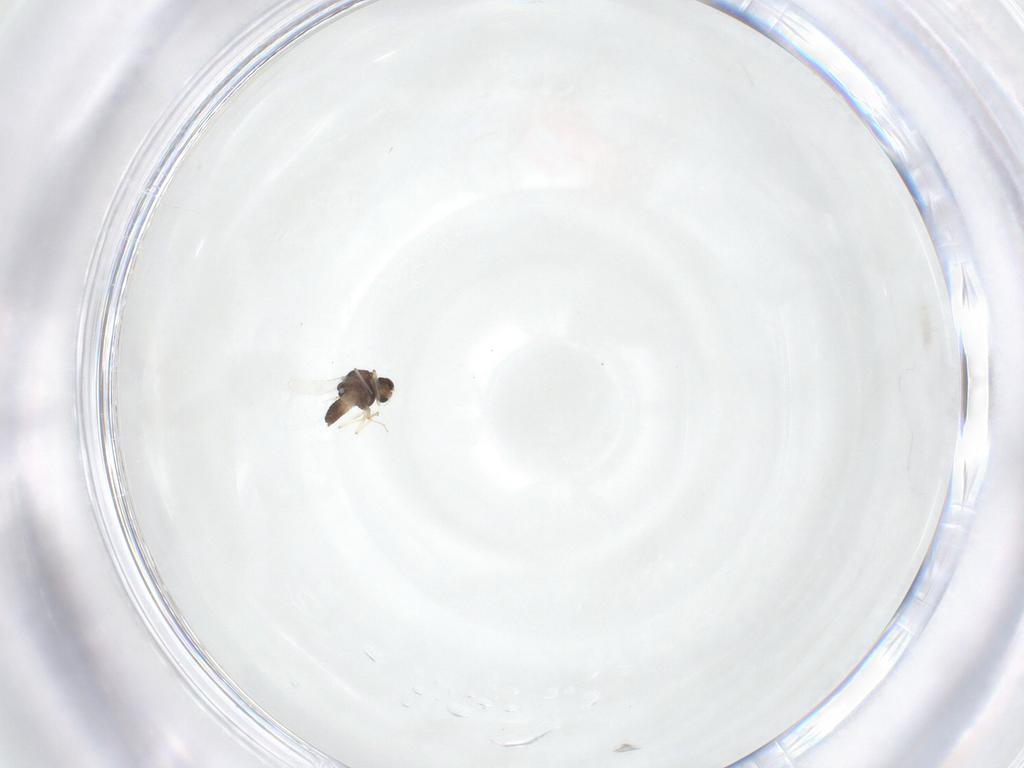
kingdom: Animalia
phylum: Arthropoda
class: Insecta
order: Diptera
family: Chironomidae
